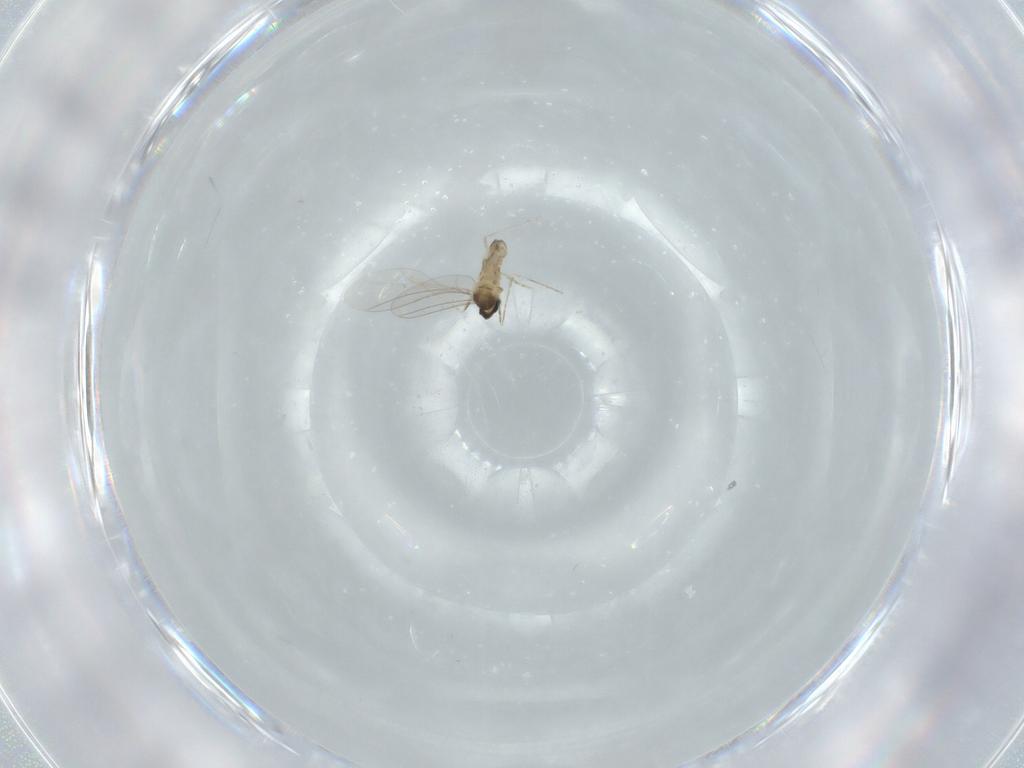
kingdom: Animalia
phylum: Arthropoda
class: Insecta
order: Diptera
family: Cecidomyiidae
